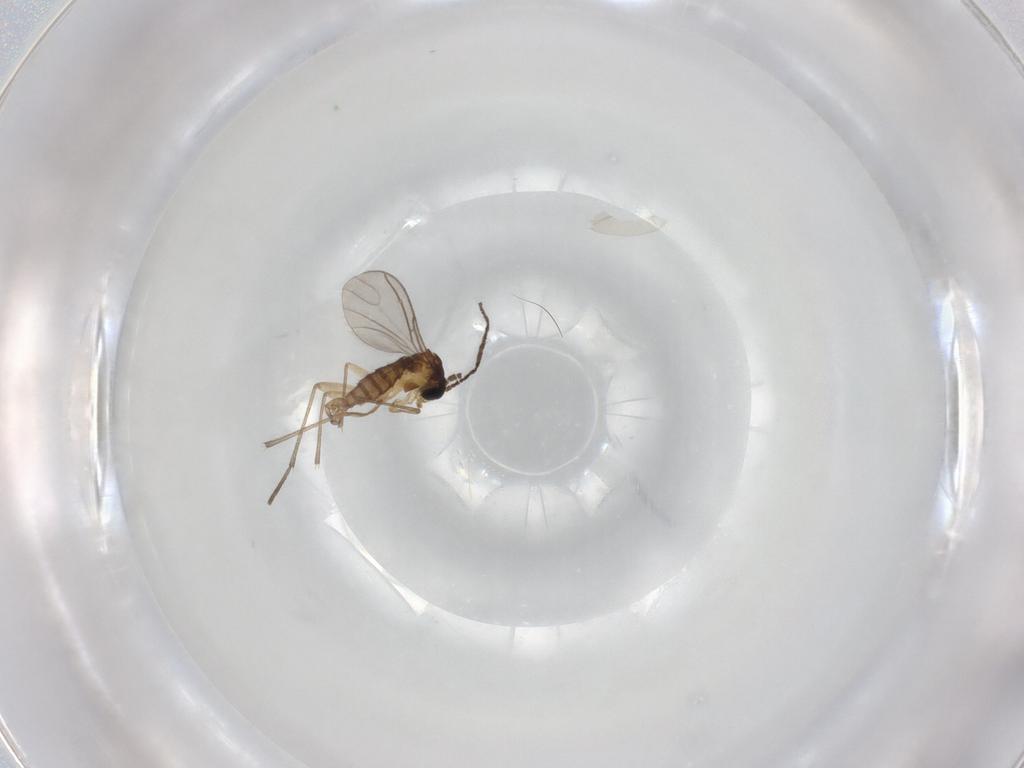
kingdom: Animalia
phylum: Arthropoda
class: Insecta
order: Diptera
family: Sciaridae
